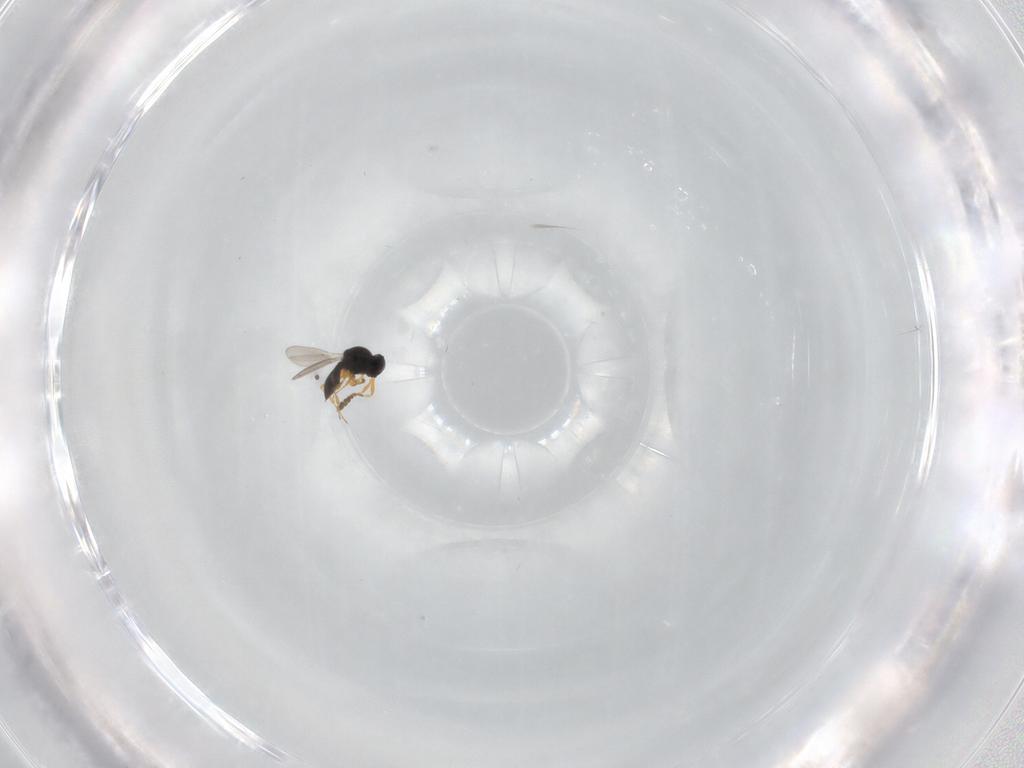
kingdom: Animalia
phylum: Arthropoda
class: Insecta
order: Hymenoptera
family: Platygastridae
